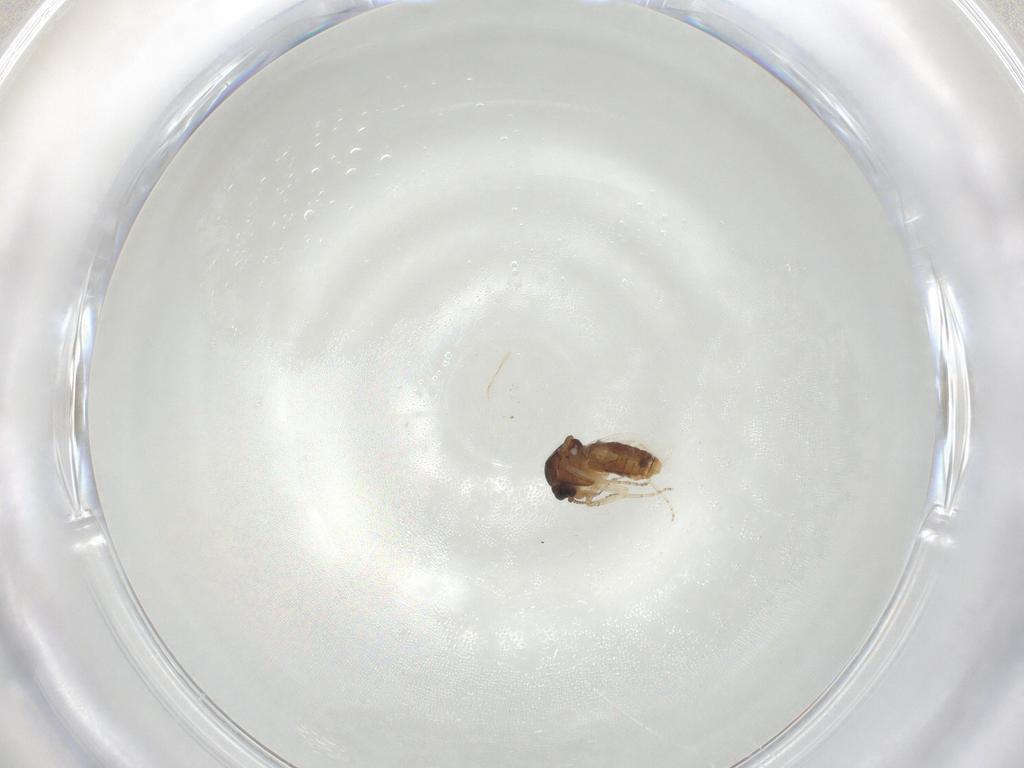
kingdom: Animalia
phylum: Arthropoda
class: Insecta
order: Diptera
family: Ceratopogonidae
